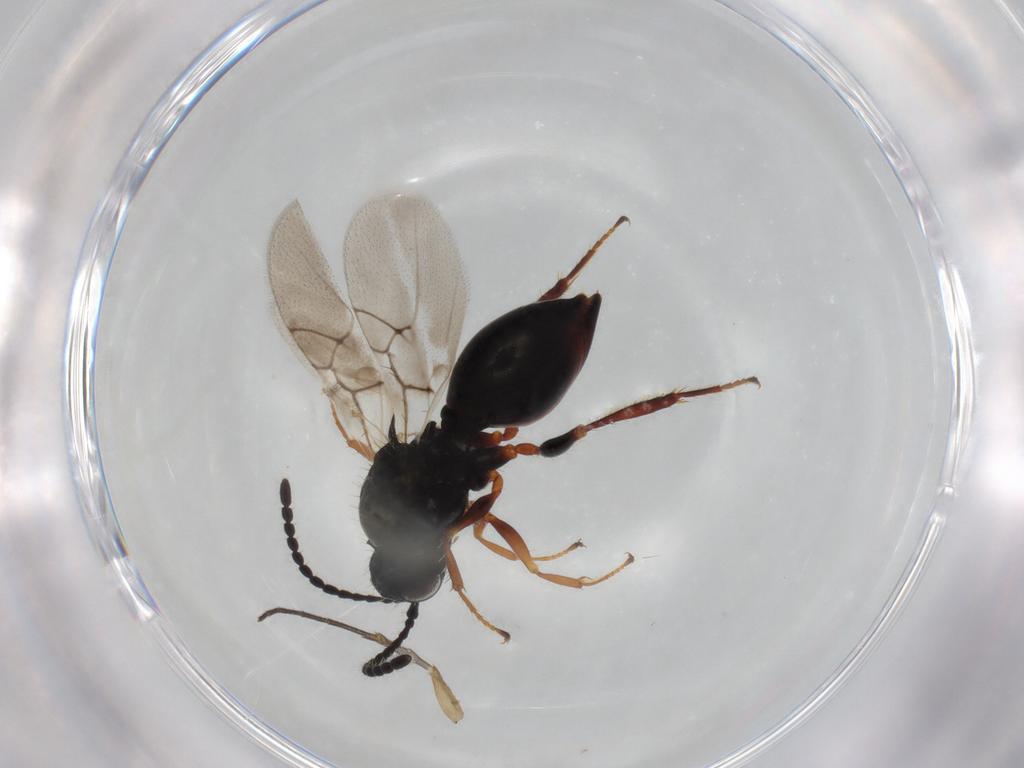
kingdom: Animalia
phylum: Arthropoda
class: Insecta
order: Hymenoptera
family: Figitidae
